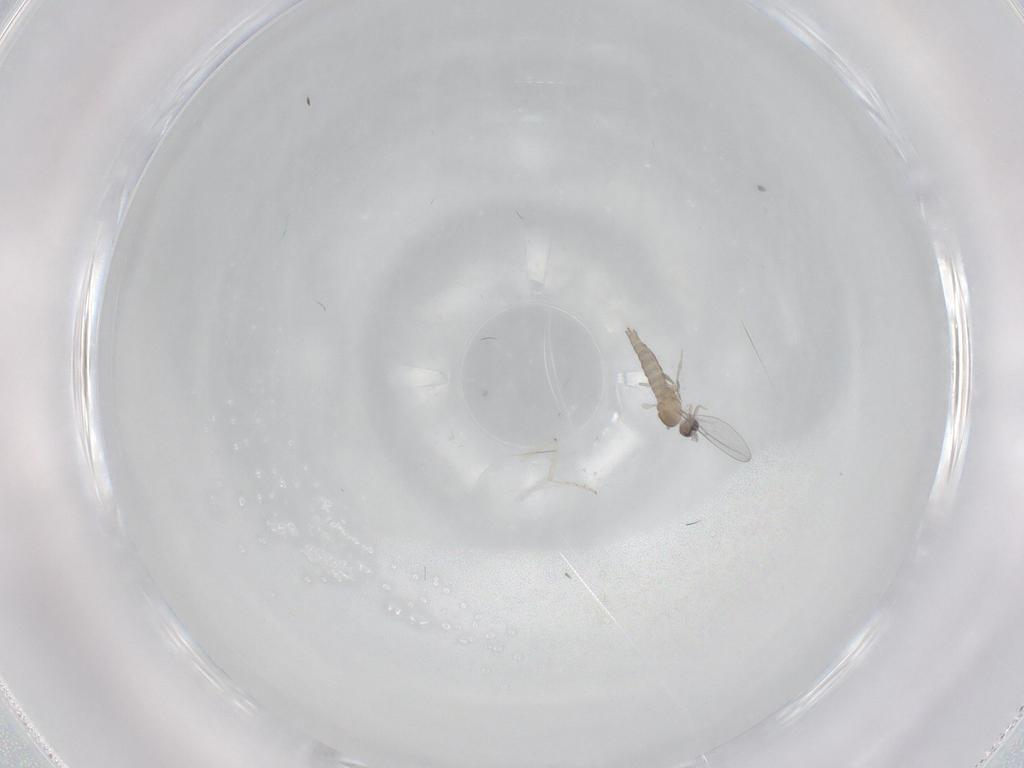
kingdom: Animalia
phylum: Arthropoda
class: Insecta
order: Diptera
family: Cecidomyiidae
